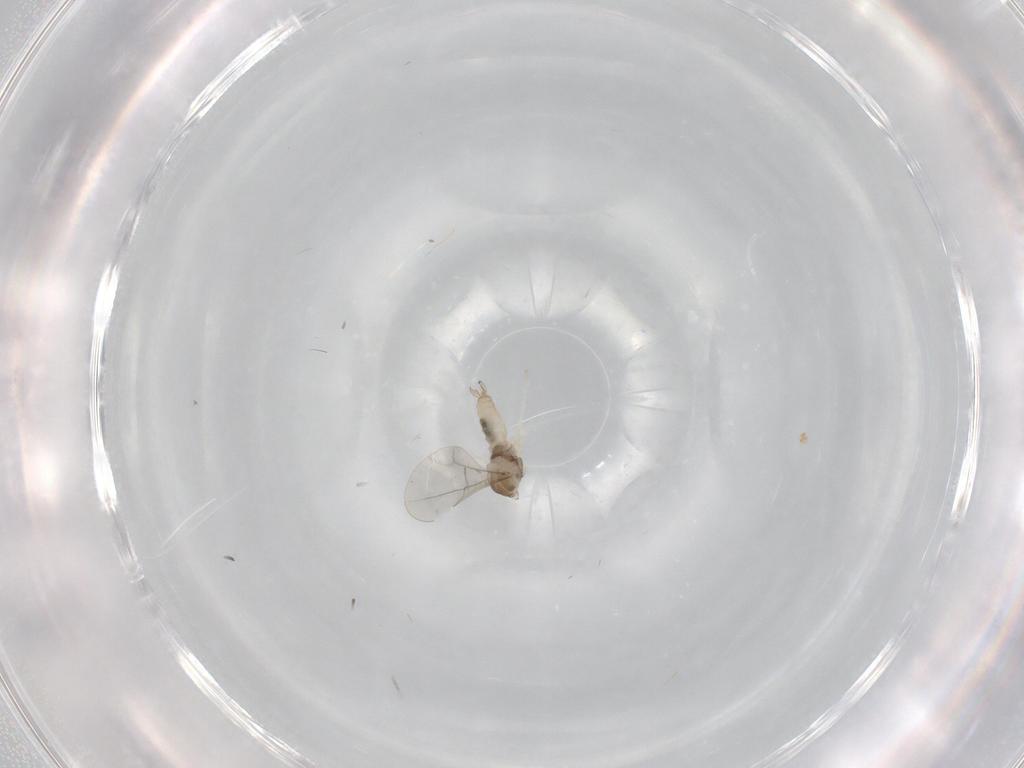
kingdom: Animalia
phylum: Arthropoda
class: Insecta
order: Diptera
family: Cecidomyiidae
